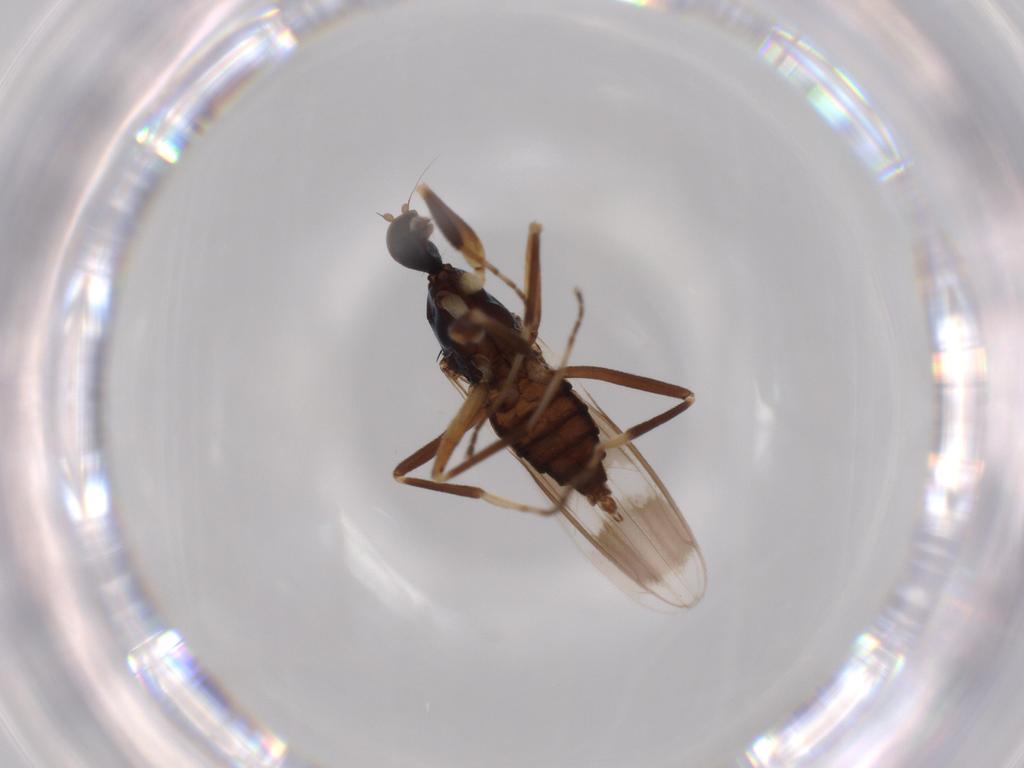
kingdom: Animalia
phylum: Arthropoda
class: Insecta
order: Diptera
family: Hybotidae
